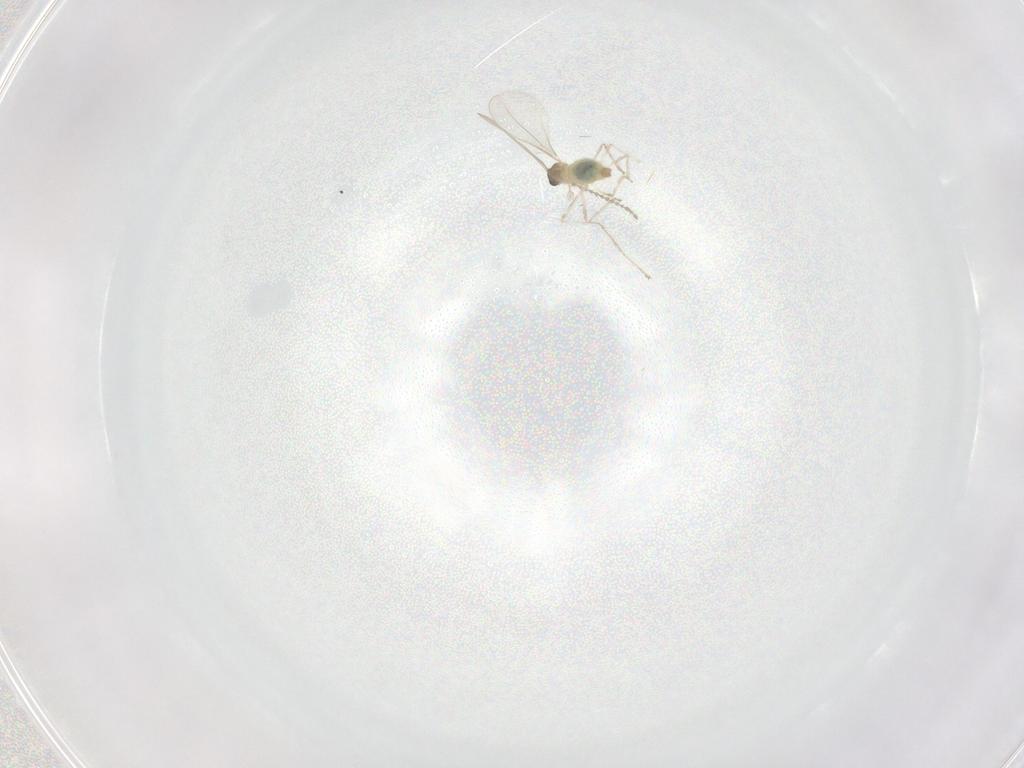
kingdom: Animalia
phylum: Arthropoda
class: Insecta
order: Diptera
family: Cecidomyiidae
